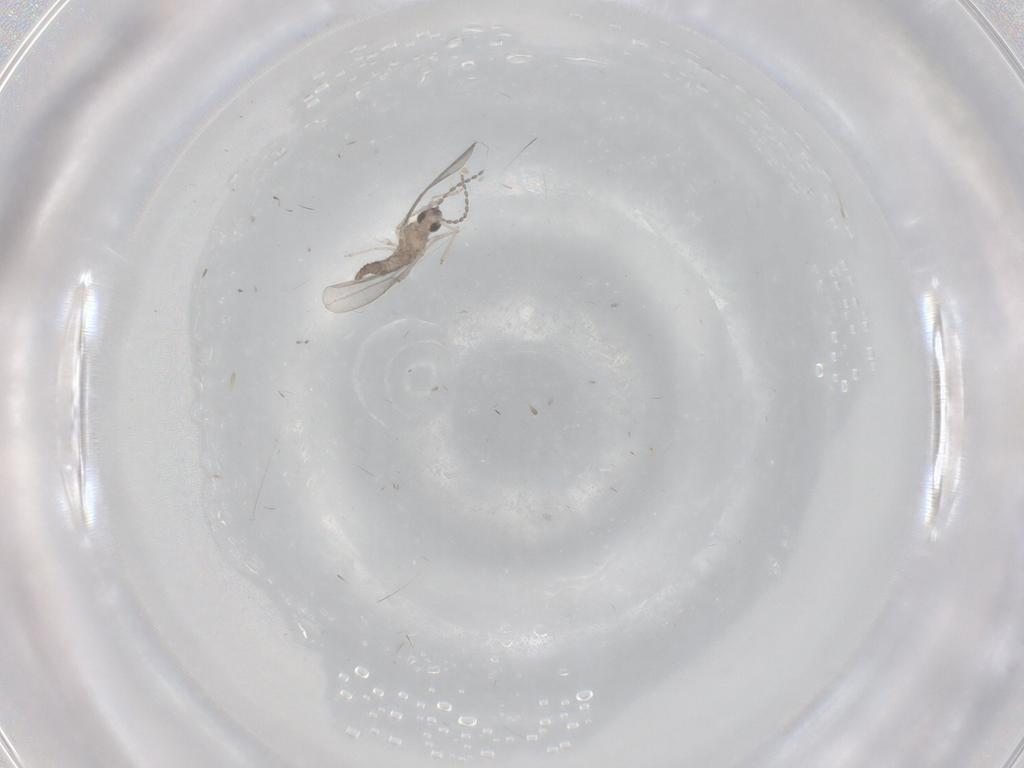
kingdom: Animalia
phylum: Arthropoda
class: Insecta
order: Diptera
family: Cecidomyiidae
